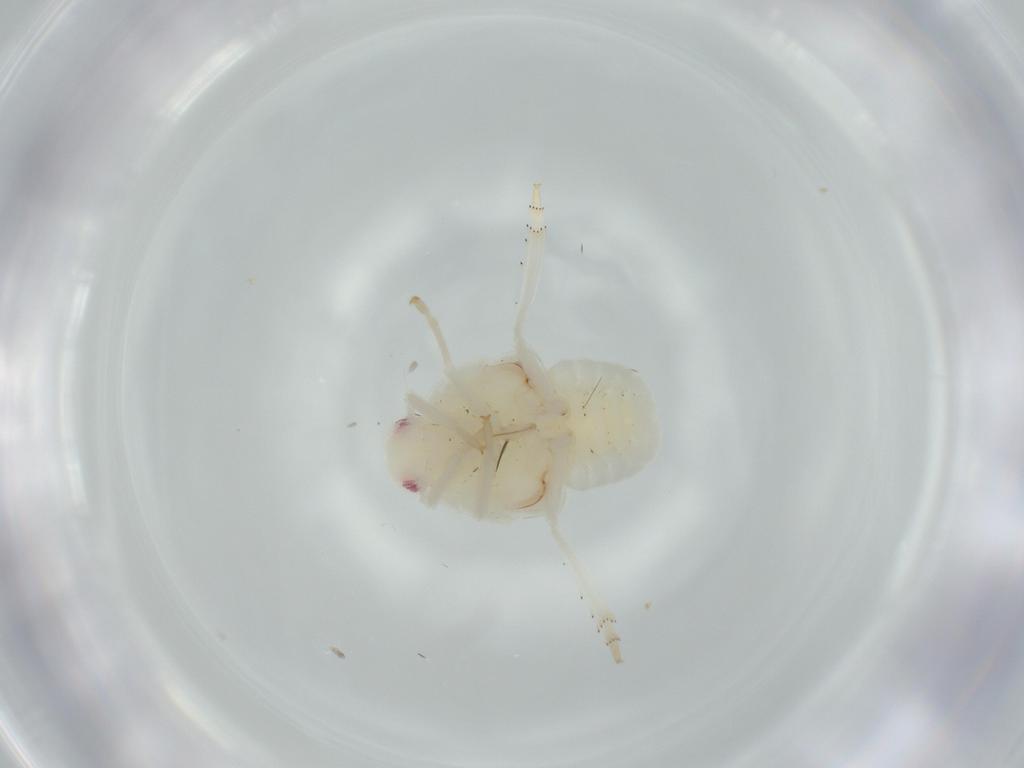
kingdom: Animalia
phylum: Arthropoda
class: Insecta
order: Hemiptera
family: Flatidae
